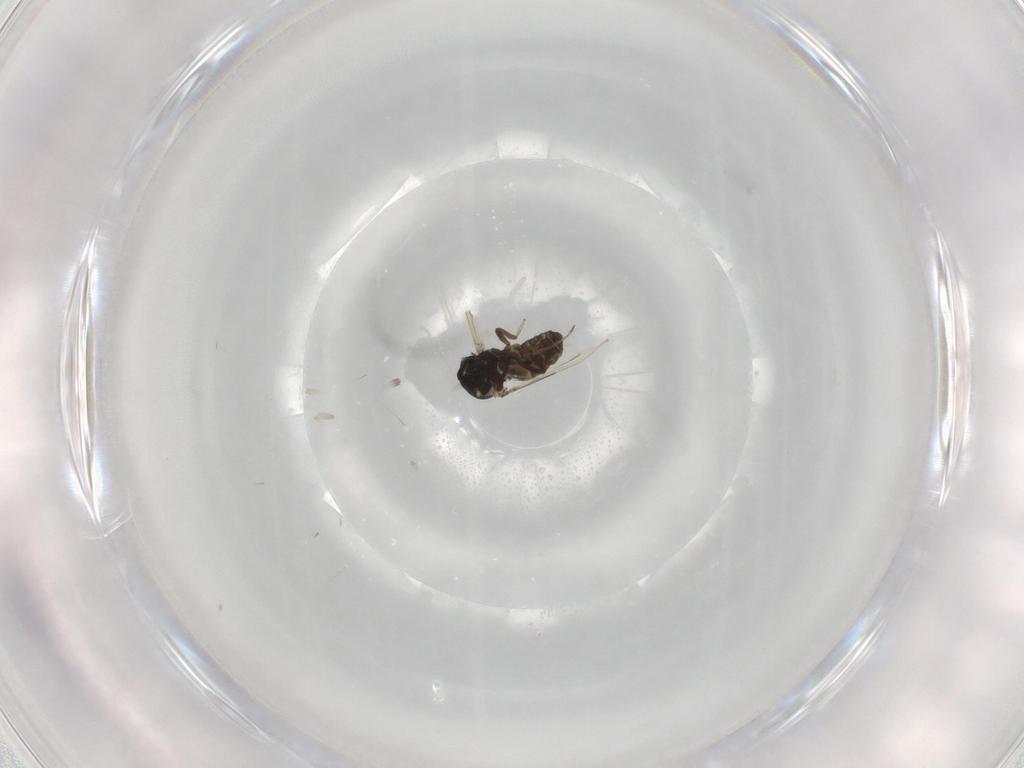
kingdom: Animalia
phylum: Arthropoda
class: Insecta
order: Diptera
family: Ceratopogonidae
